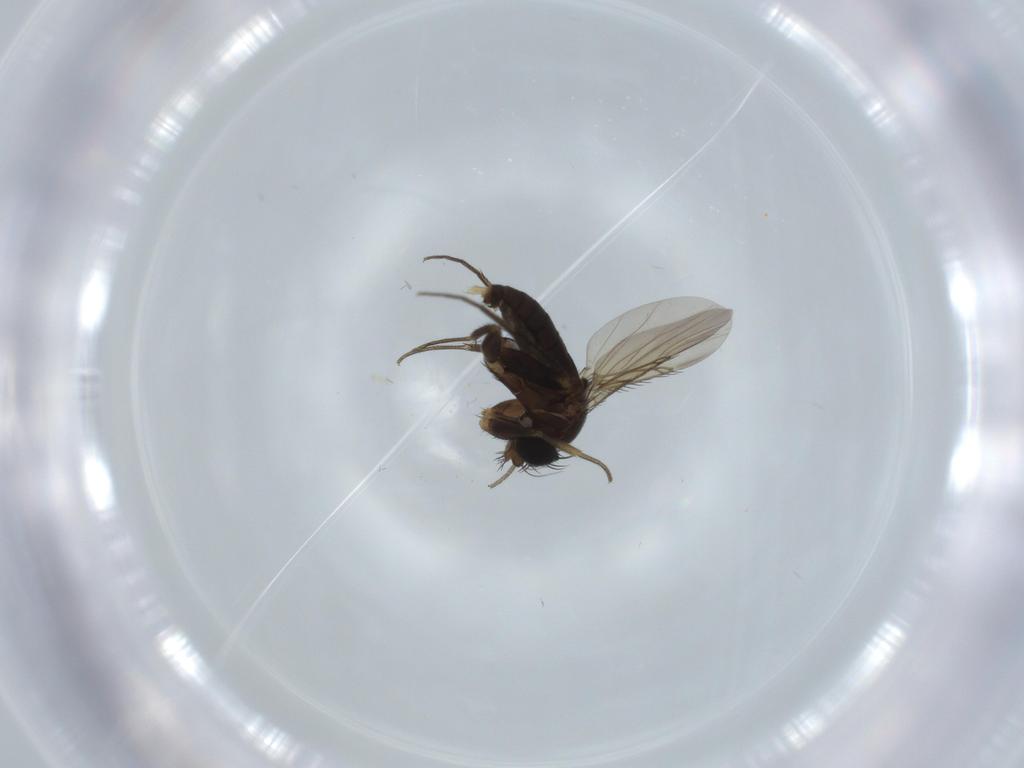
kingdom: Animalia
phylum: Arthropoda
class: Insecta
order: Diptera
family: Phoridae
